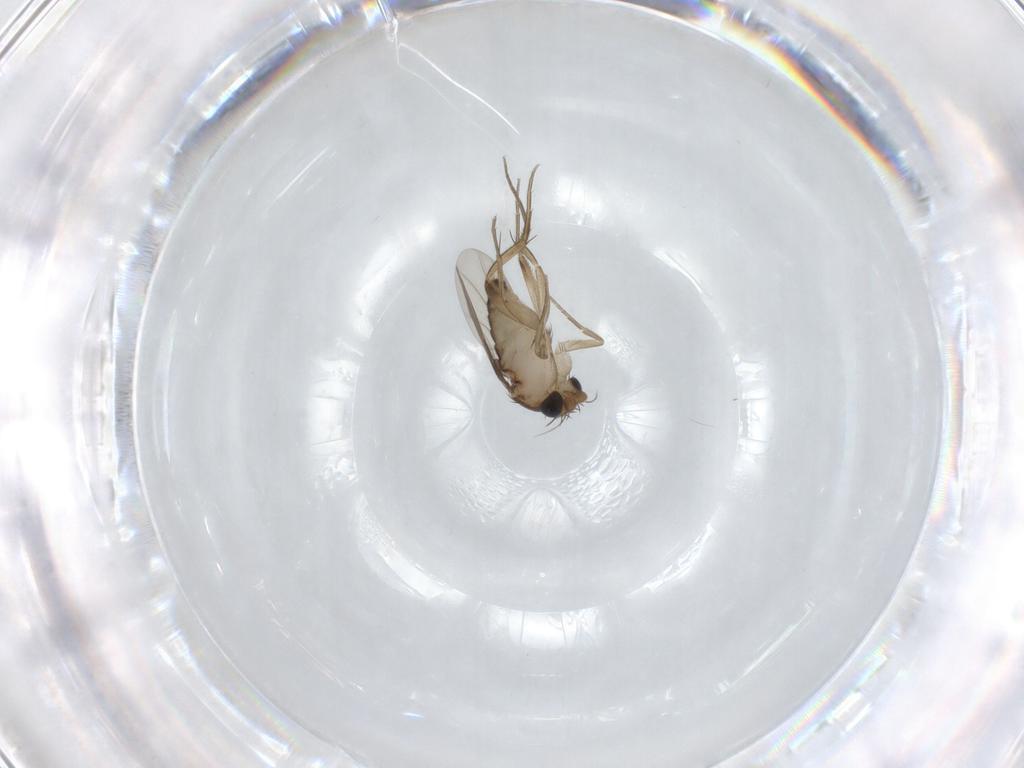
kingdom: Animalia
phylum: Arthropoda
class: Insecta
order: Diptera
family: Phoridae
